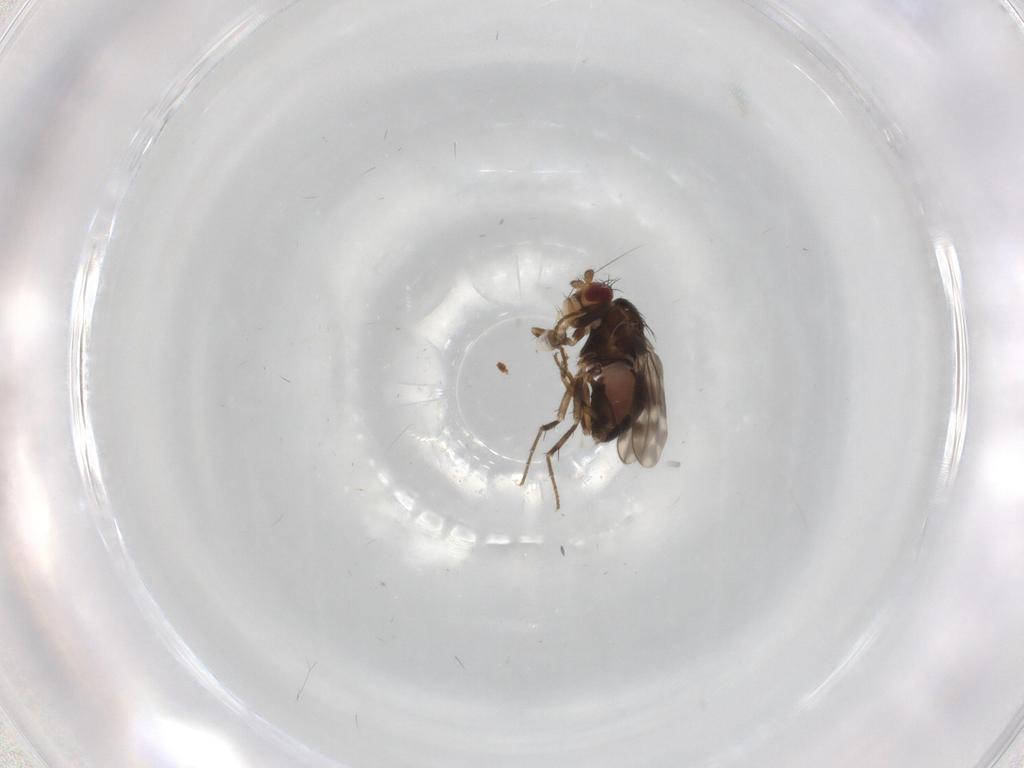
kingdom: Animalia
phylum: Arthropoda
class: Insecta
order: Diptera
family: Sphaeroceridae
